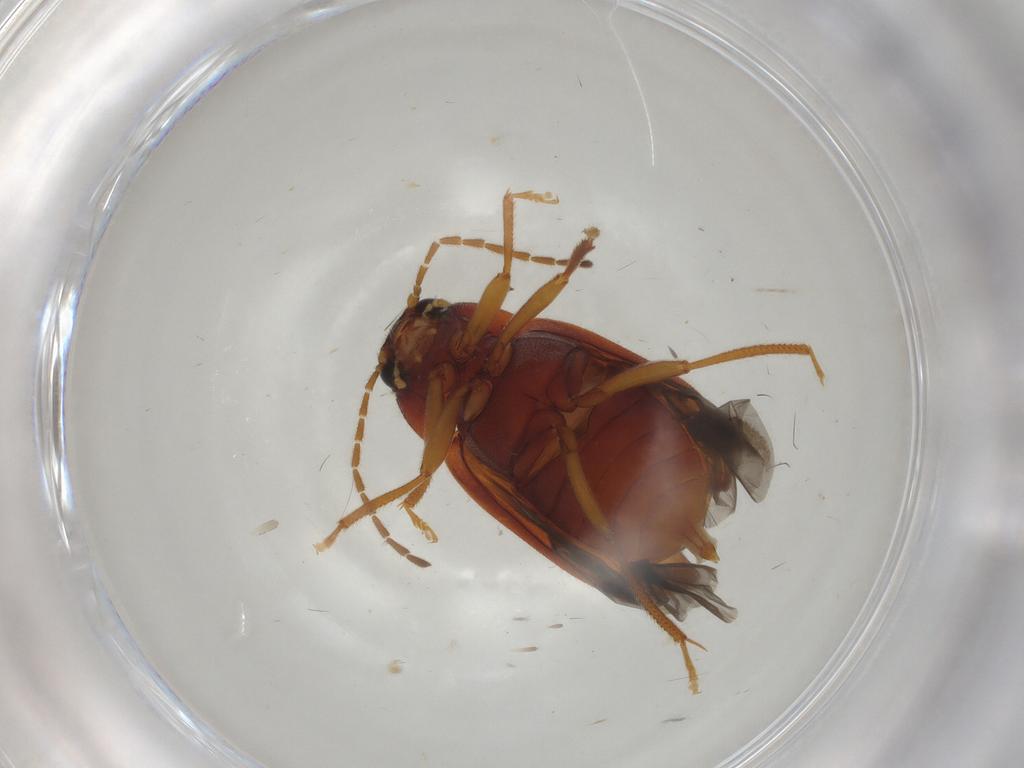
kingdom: Animalia
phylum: Arthropoda
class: Insecta
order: Coleoptera
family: Ptilodactylidae
